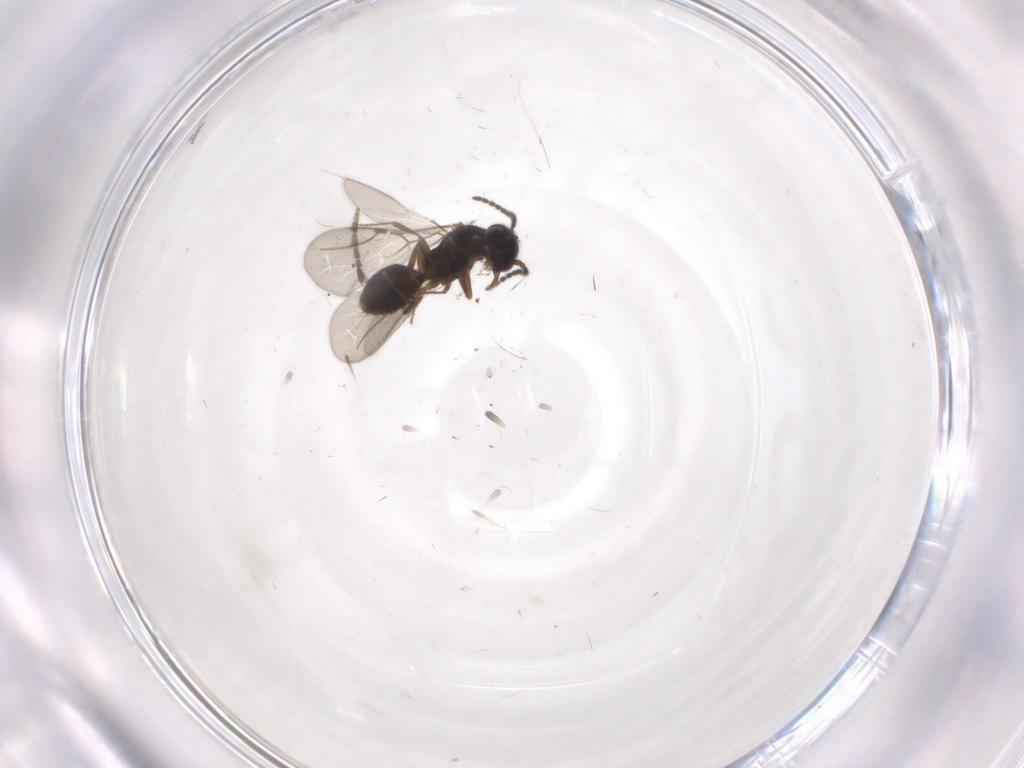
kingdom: Animalia
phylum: Arthropoda
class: Insecta
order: Hymenoptera
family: Bethylidae
